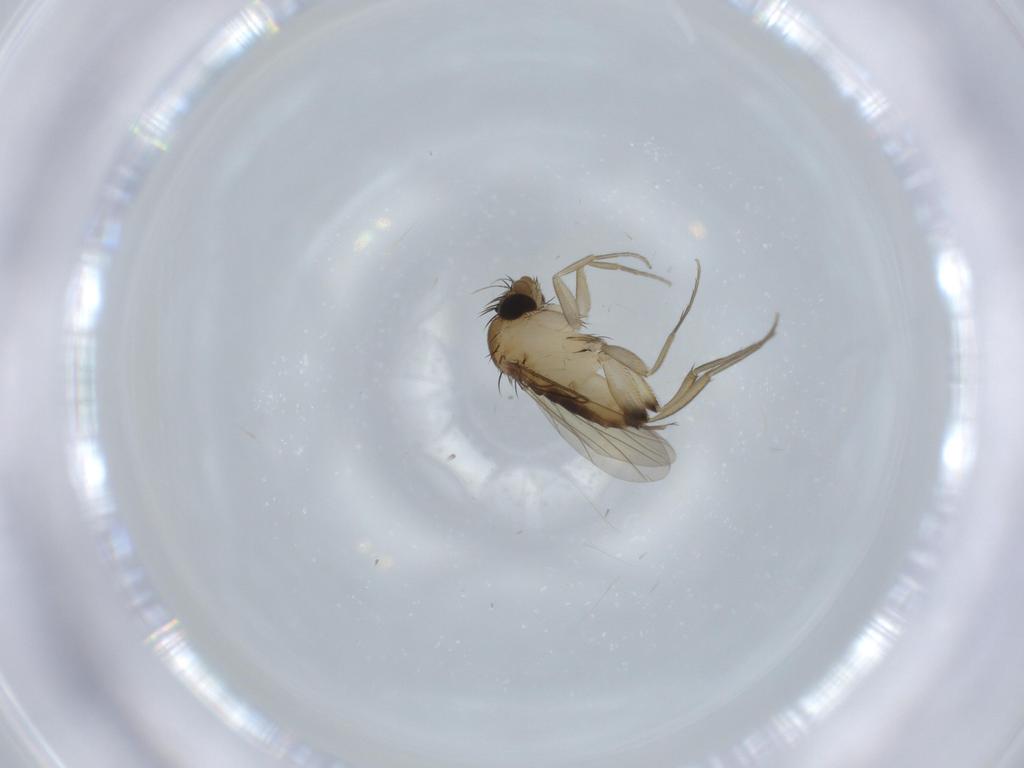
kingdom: Animalia
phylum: Arthropoda
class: Insecta
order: Diptera
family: Phoridae
